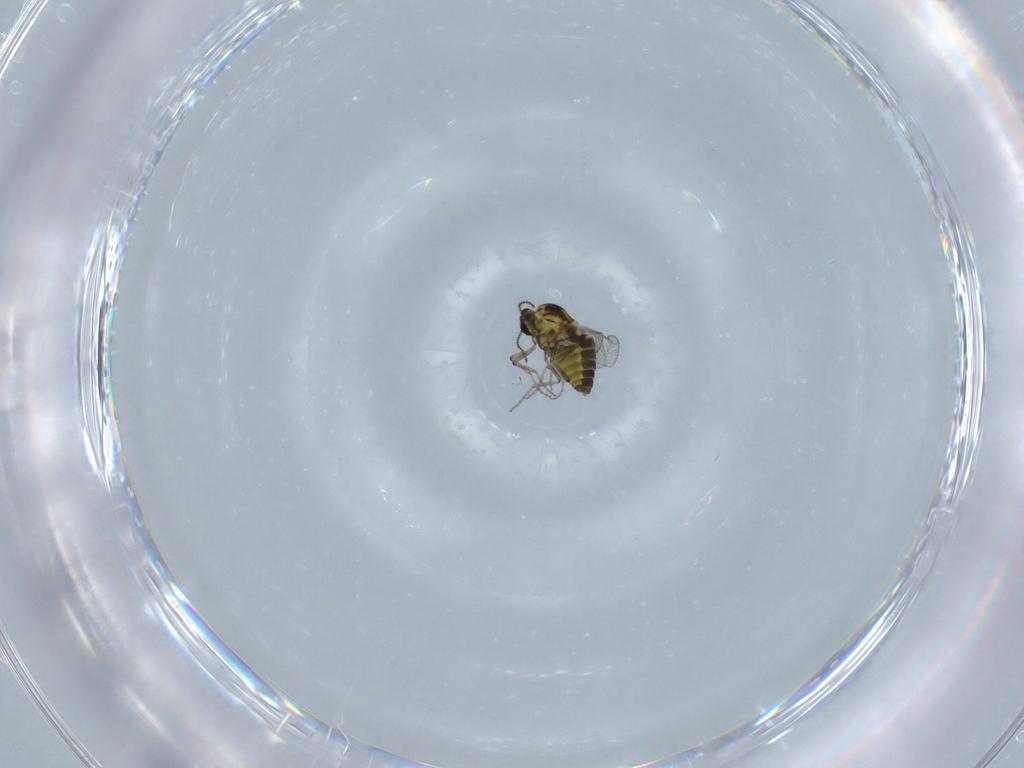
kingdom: Animalia
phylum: Arthropoda
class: Insecta
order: Diptera
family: Ceratopogonidae
